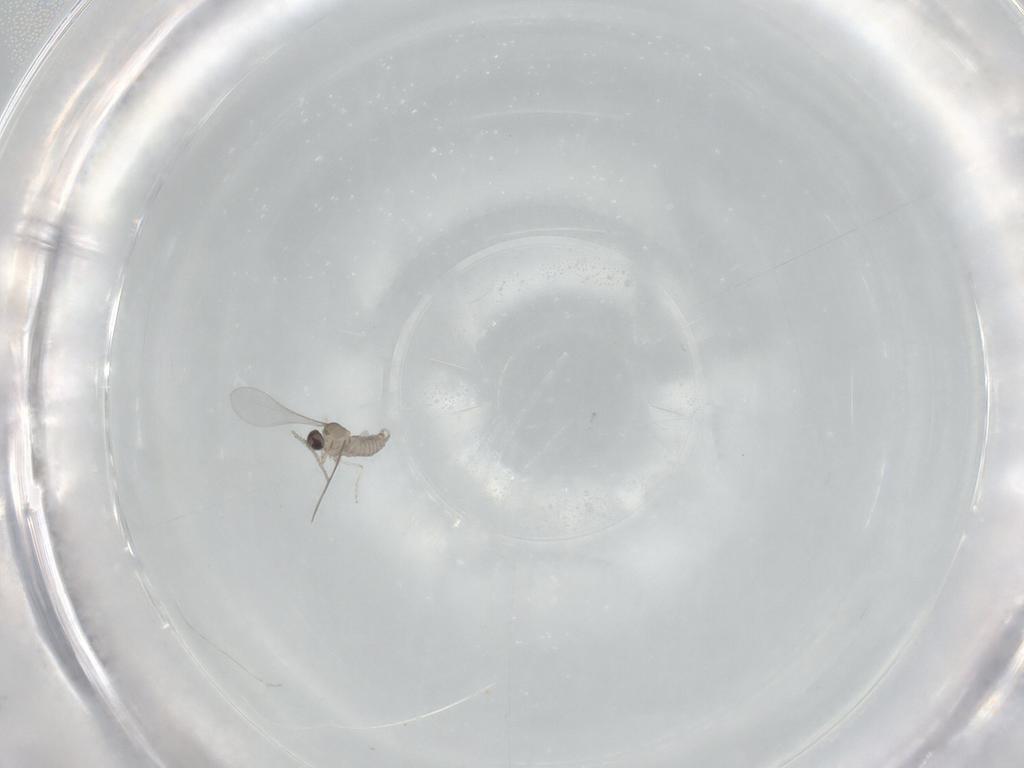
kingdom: Animalia
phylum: Arthropoda
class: Insecta
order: Diptera
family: Cecidomyiidae
